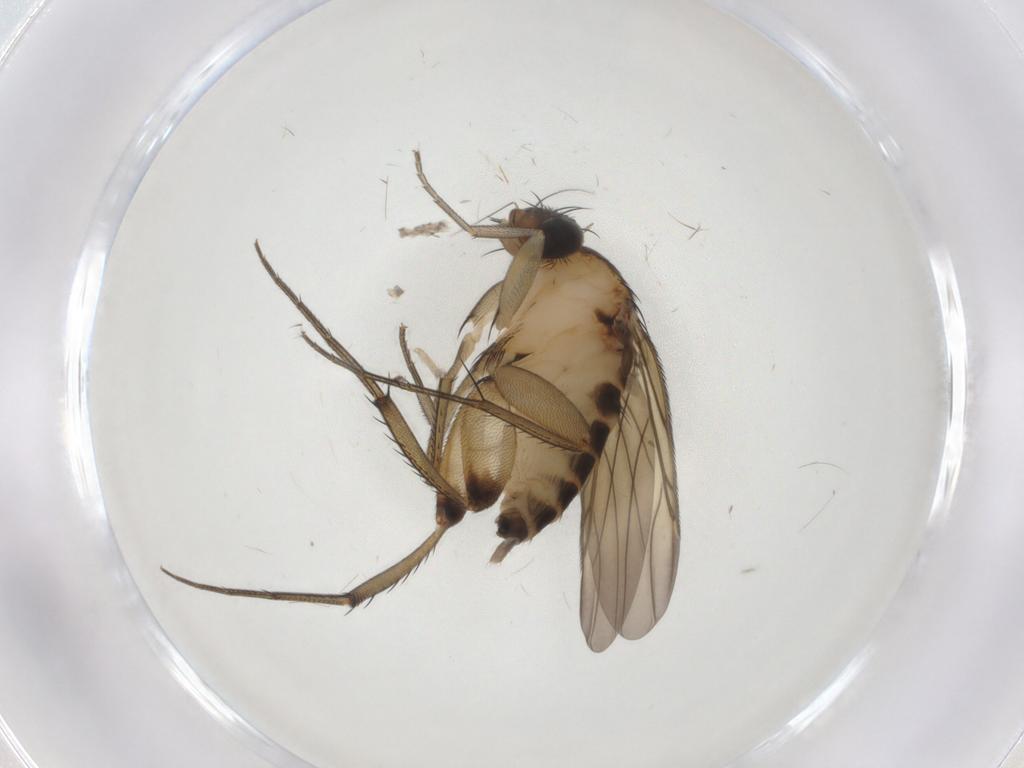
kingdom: Animalia
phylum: Arthropoda
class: Insecta
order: Diptera
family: Phoridae
